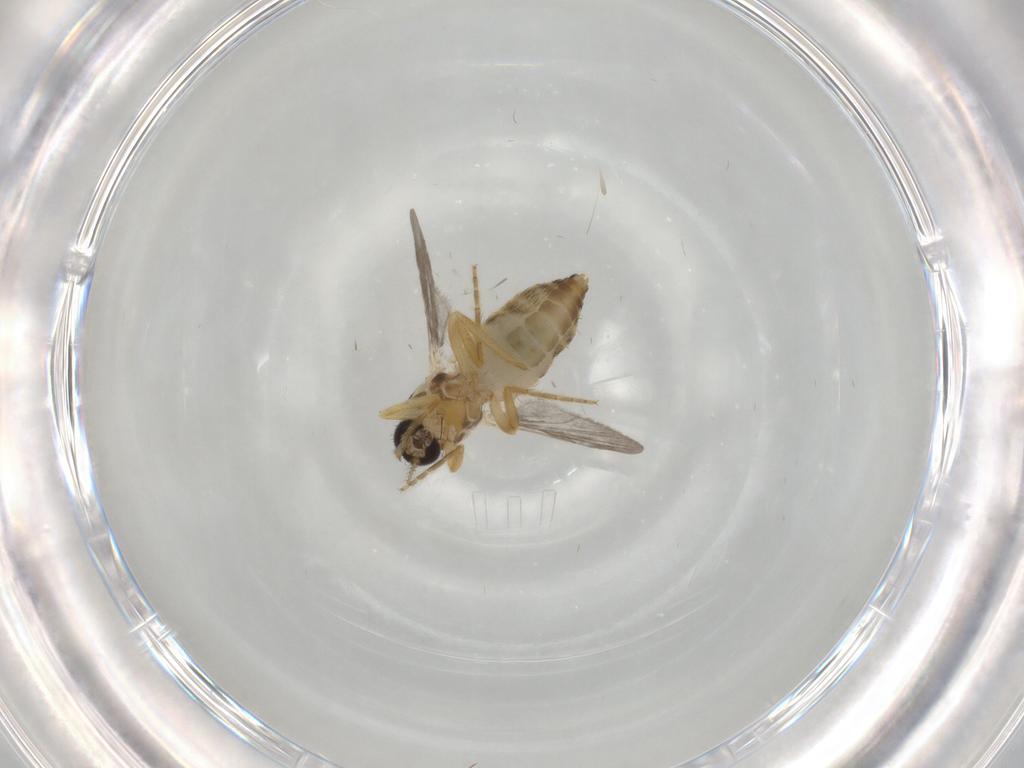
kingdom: Animalia
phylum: Arthropoda
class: Insecta
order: Diptera
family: Ceratopogonidae
